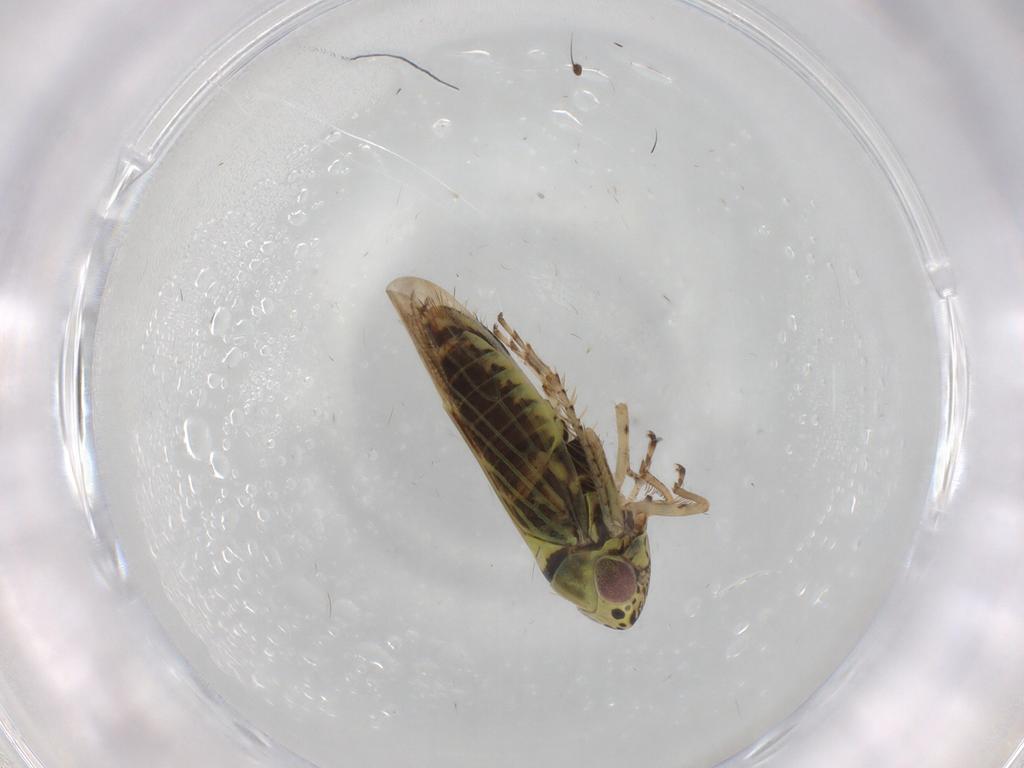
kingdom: Animalia
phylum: Arthropoda
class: Insecta
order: Hemiptera
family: Cicadellidae
